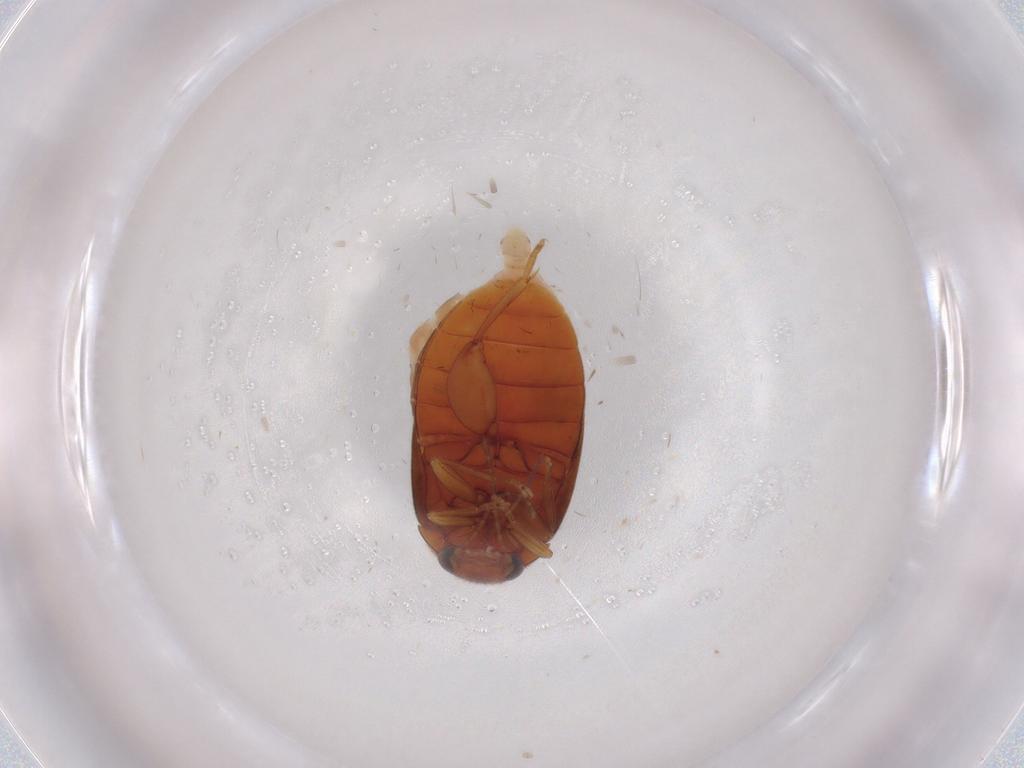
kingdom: Animalia
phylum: Arthropoda
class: Insecta
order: Coleoptera
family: Scirtidae
